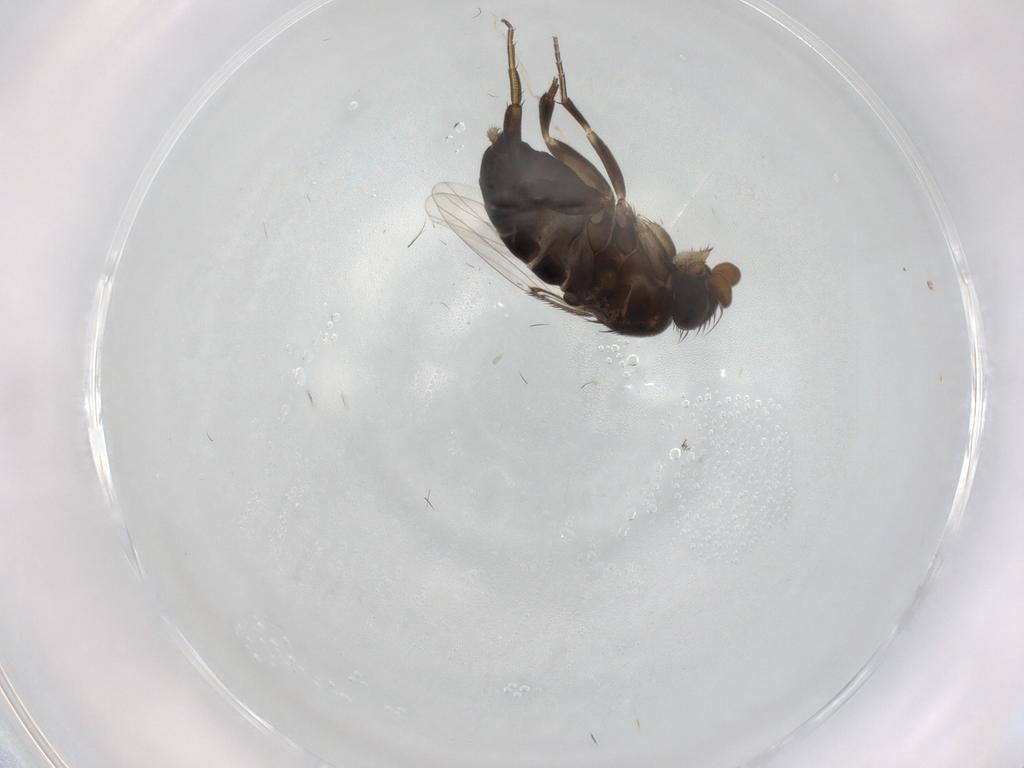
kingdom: Animalia
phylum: Arthropoda
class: Insecta
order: Diptera
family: Phoridae
